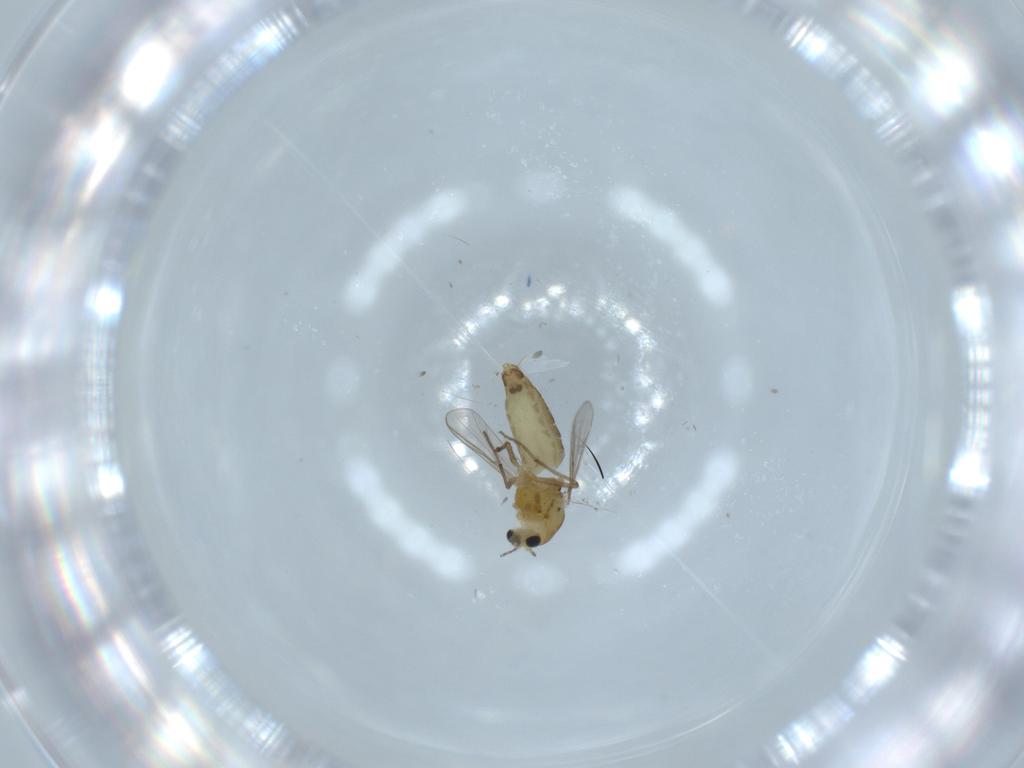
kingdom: Animalia
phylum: Arthropoda
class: Insecta
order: Diptera
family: Chironomidae
